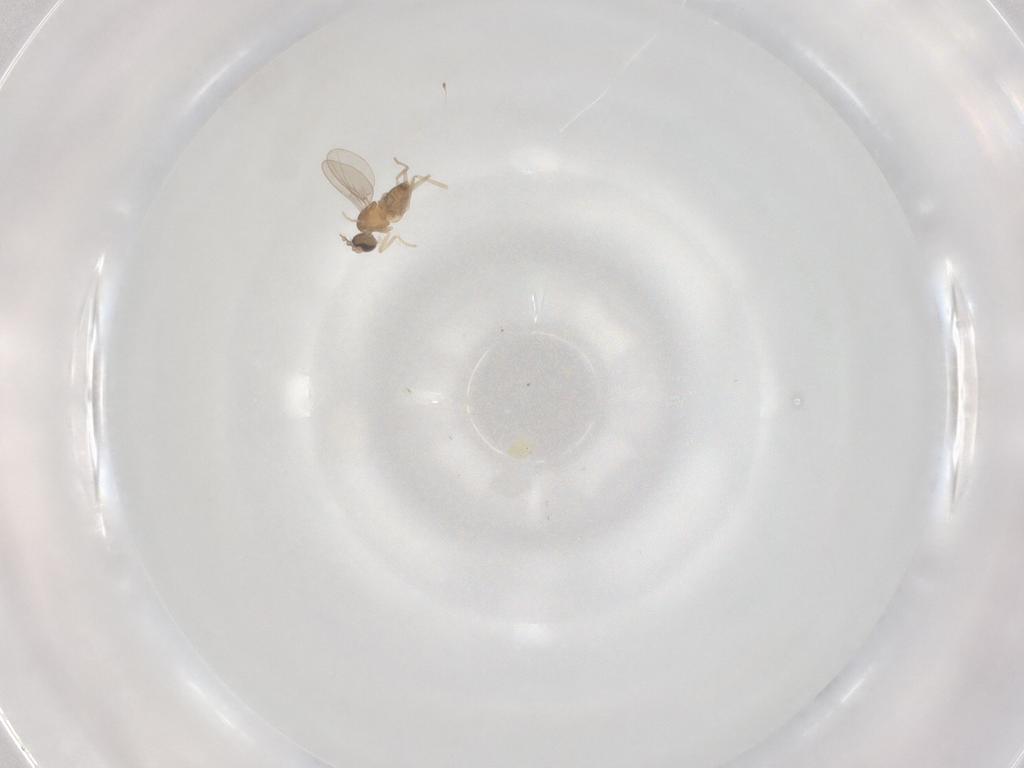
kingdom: Animalia
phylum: Arthropoda
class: Insecta
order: Diptera
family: Cecidomyiidae
